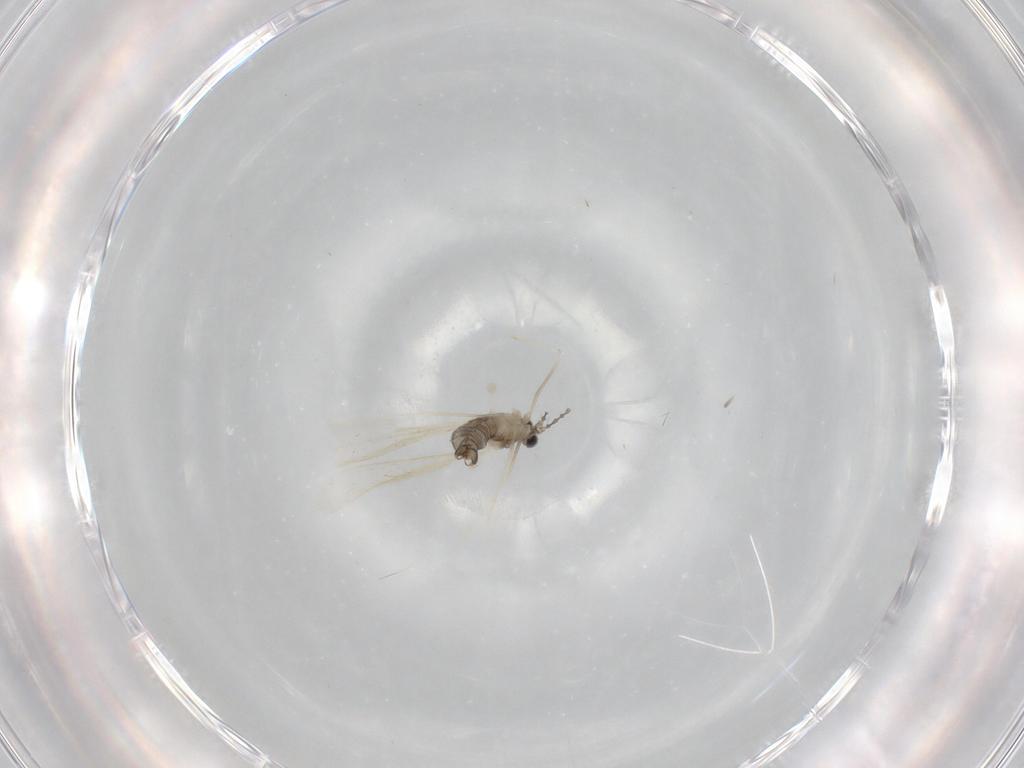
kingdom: Animalia
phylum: Arthropoda
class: Insecta
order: Diptera
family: Cecidomyiidae
